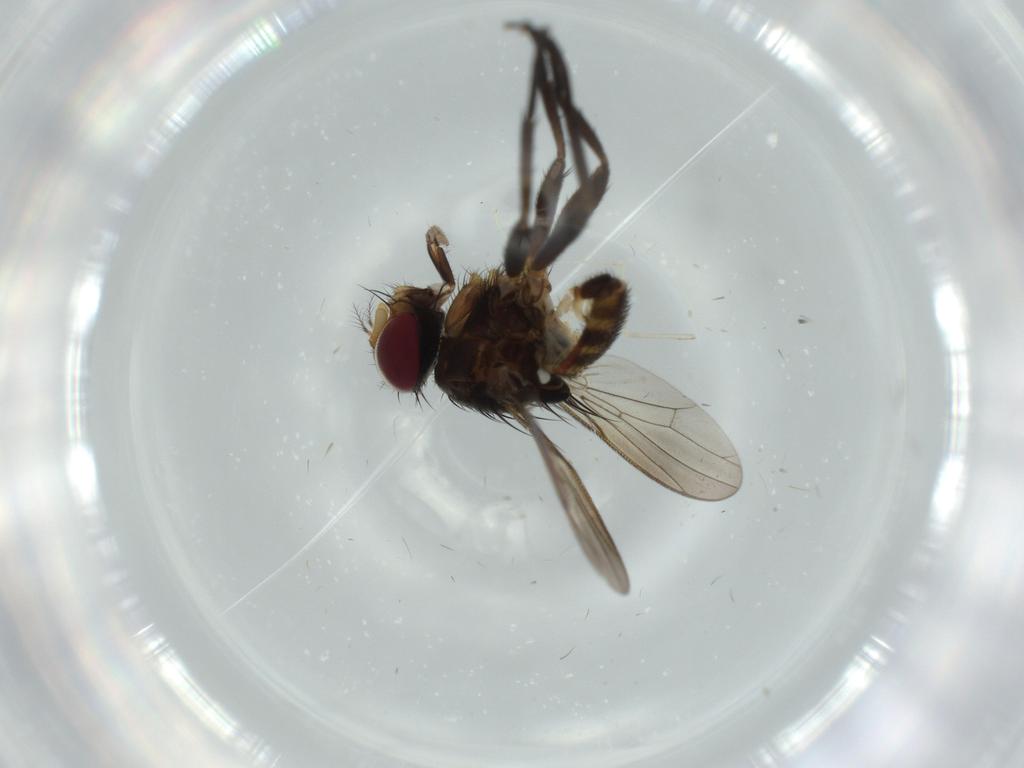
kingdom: Animalia
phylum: Arthropoda
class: Insecta
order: Diptera
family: Anthomyiidae
